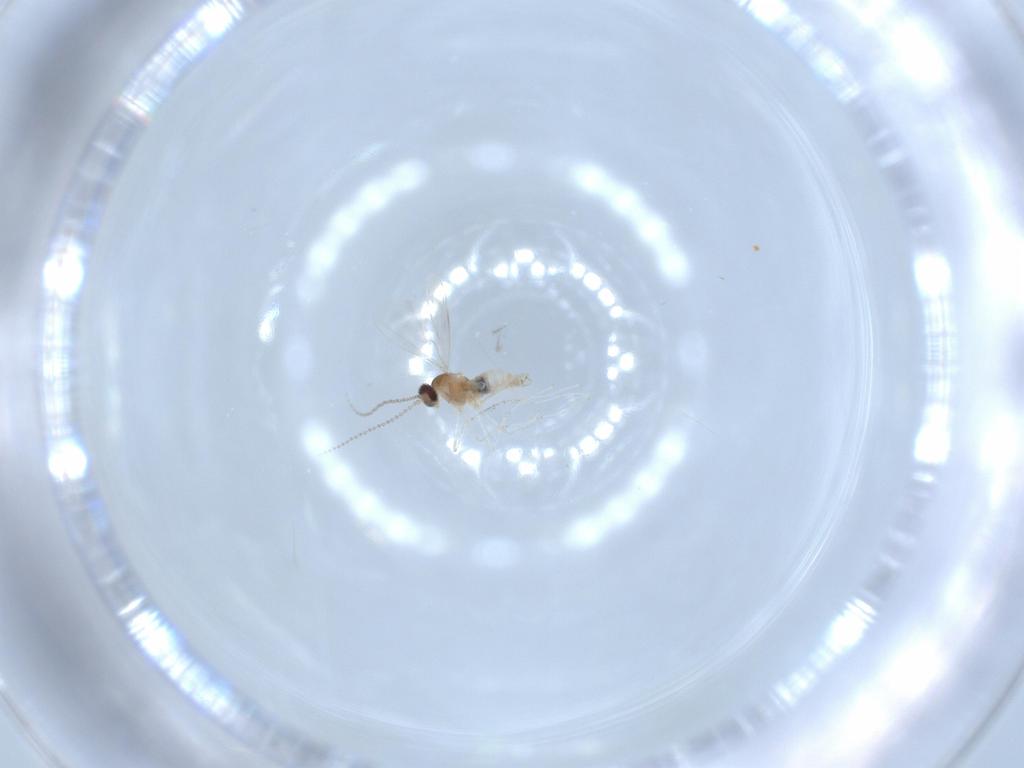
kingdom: Animalia
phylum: Arthropoda
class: Insecta
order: Diptera
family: Cecidomyiidae
